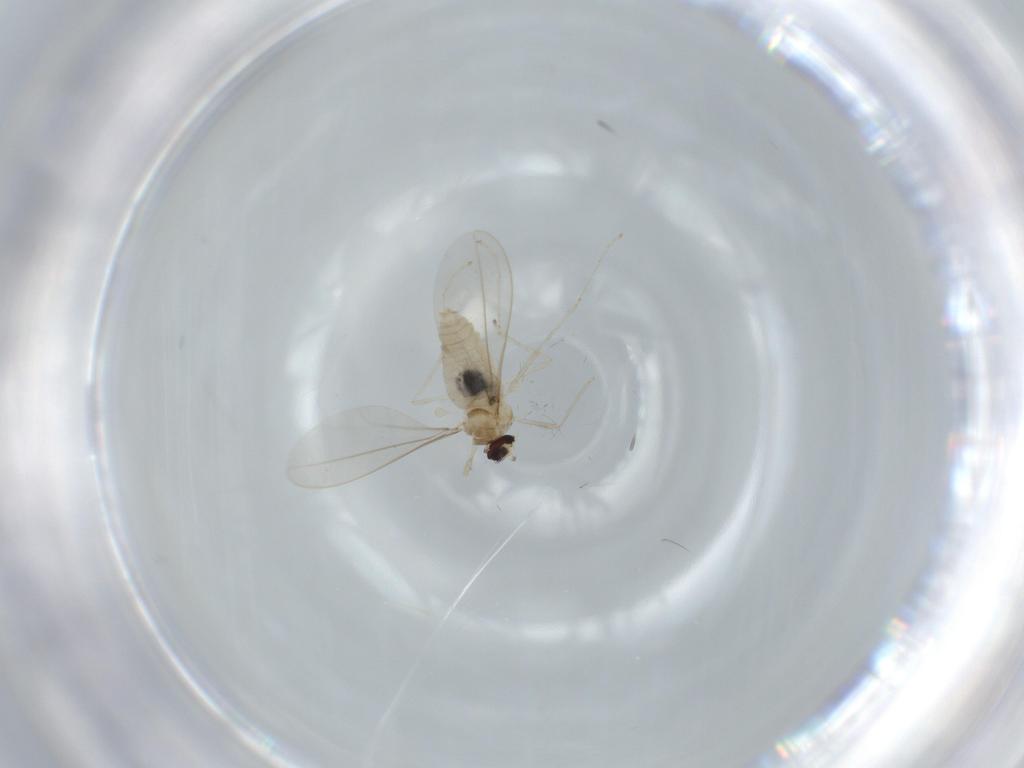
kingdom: Animalia
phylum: Arthropoda
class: Insecta
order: Diptera
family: Cecidomyiidae
